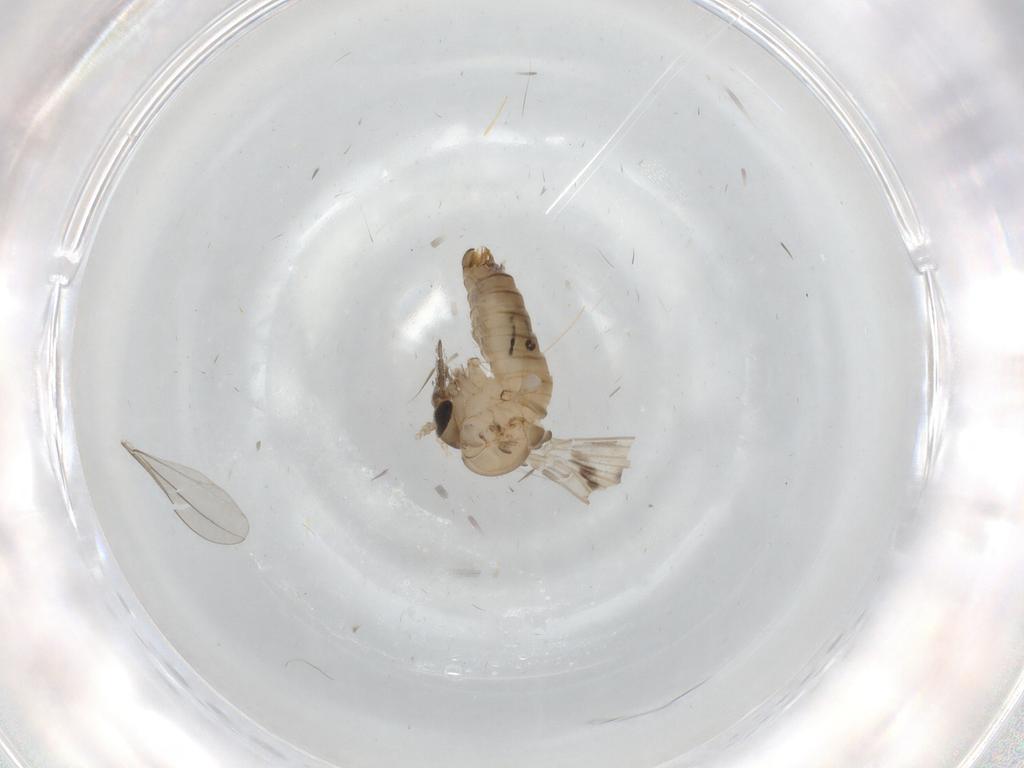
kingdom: Animalia
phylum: Arthropoda
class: Insecta
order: Diptera
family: Psychodidae
